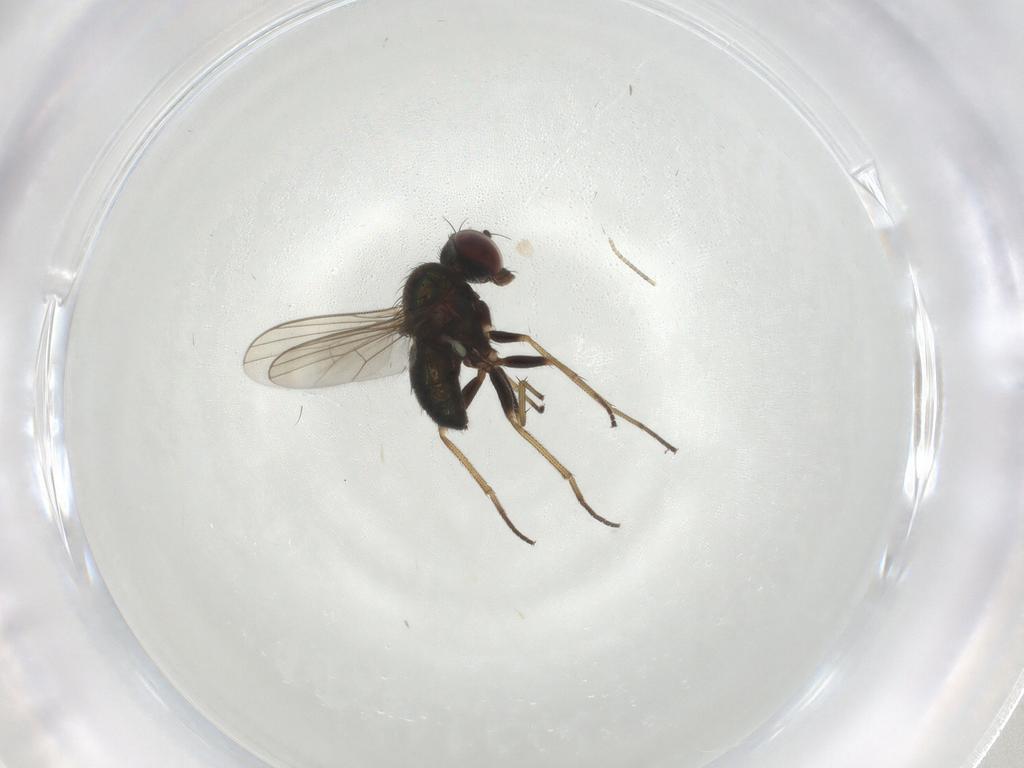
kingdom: Animalia
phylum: Arthropoda
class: Insecta
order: Diptera
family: Dolichopodidae
